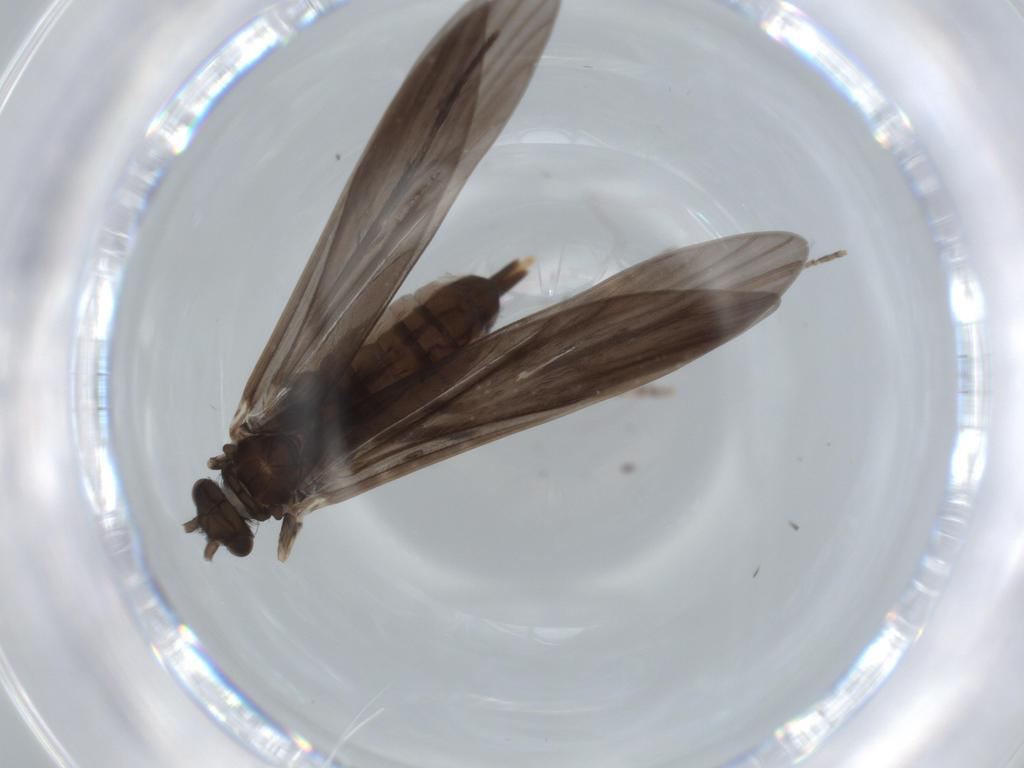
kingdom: Animalia
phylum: Arthropoda
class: Insecta
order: Trichoptera
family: Xiphocentronidae
